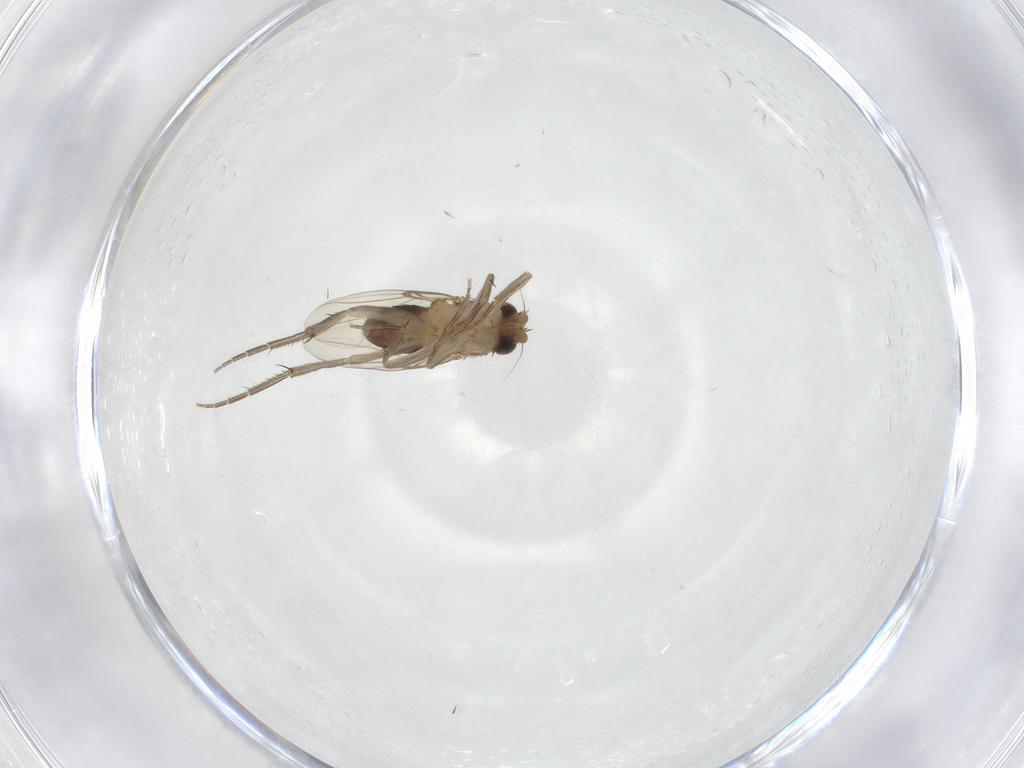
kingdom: Animalia
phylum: Arthropoda
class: Insecta
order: Diptera
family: Phoridae
